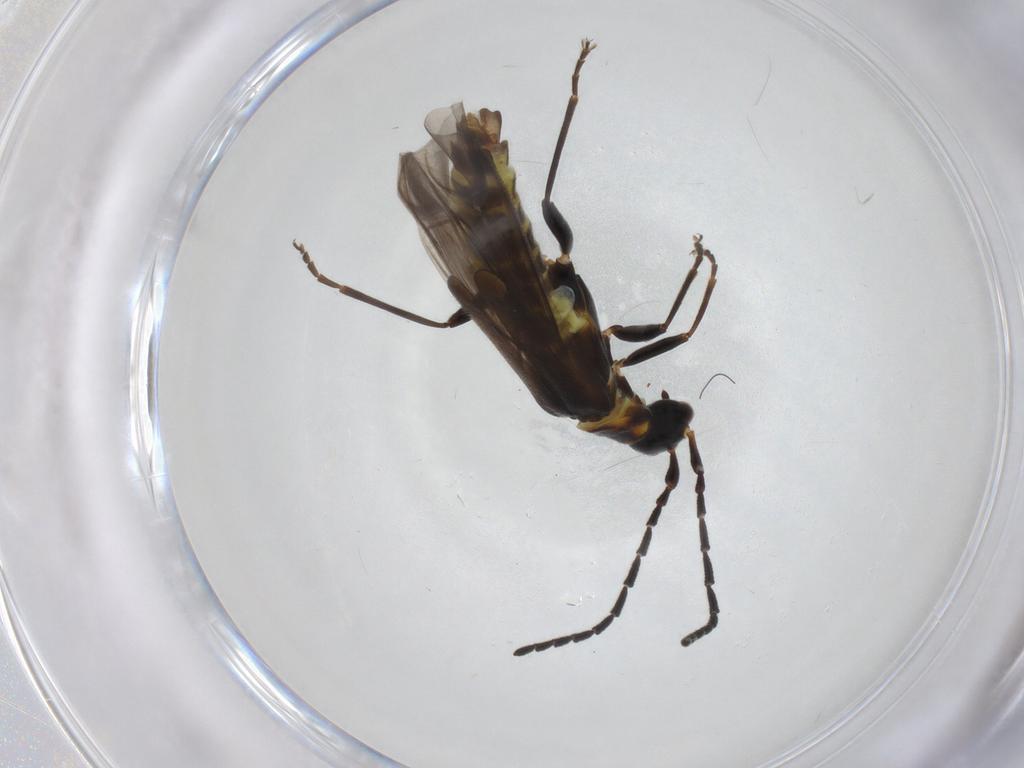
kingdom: Animalia
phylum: Arthropoda
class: Insecta
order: Coleoptera
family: Cantharidae
